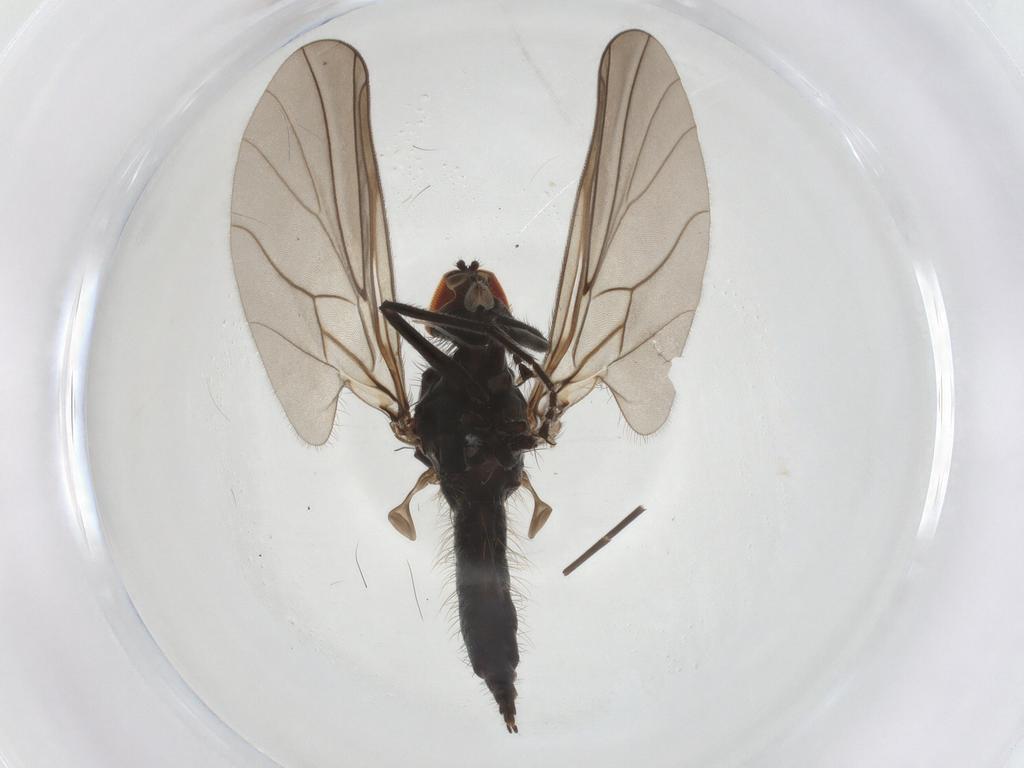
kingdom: Animalia
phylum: Arthropoda
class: Insecta
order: Diptera
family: Hybotidae
